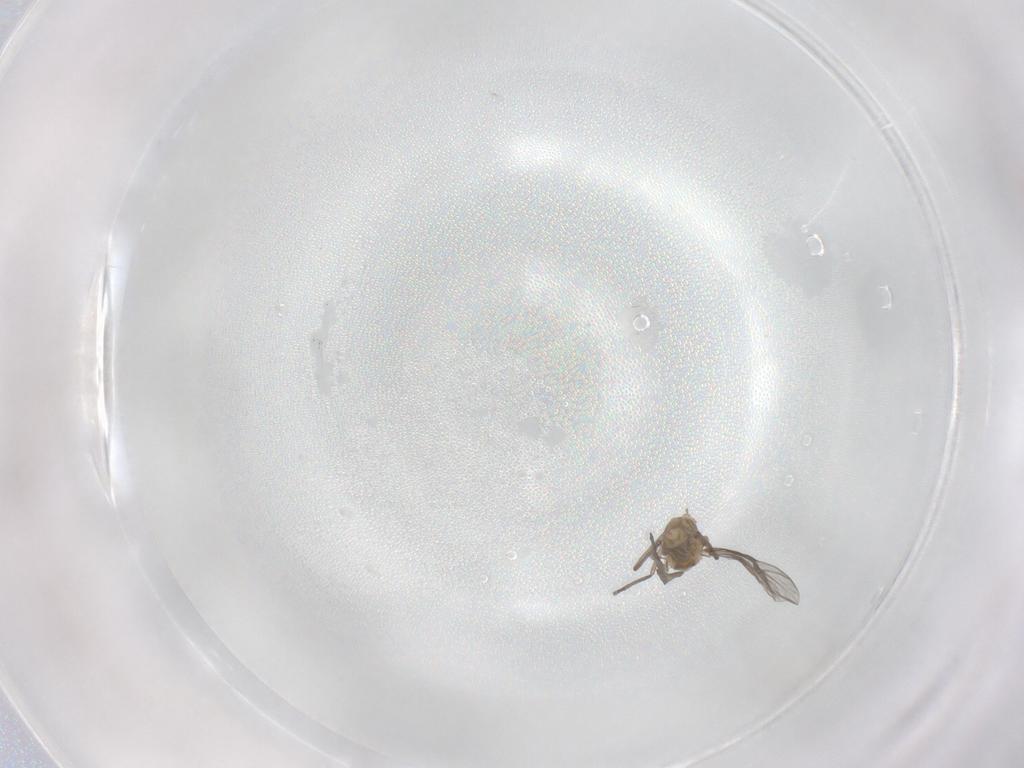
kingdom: Animalia
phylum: Arthropoda
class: Insecta
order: Diptera
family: Chironomidae
